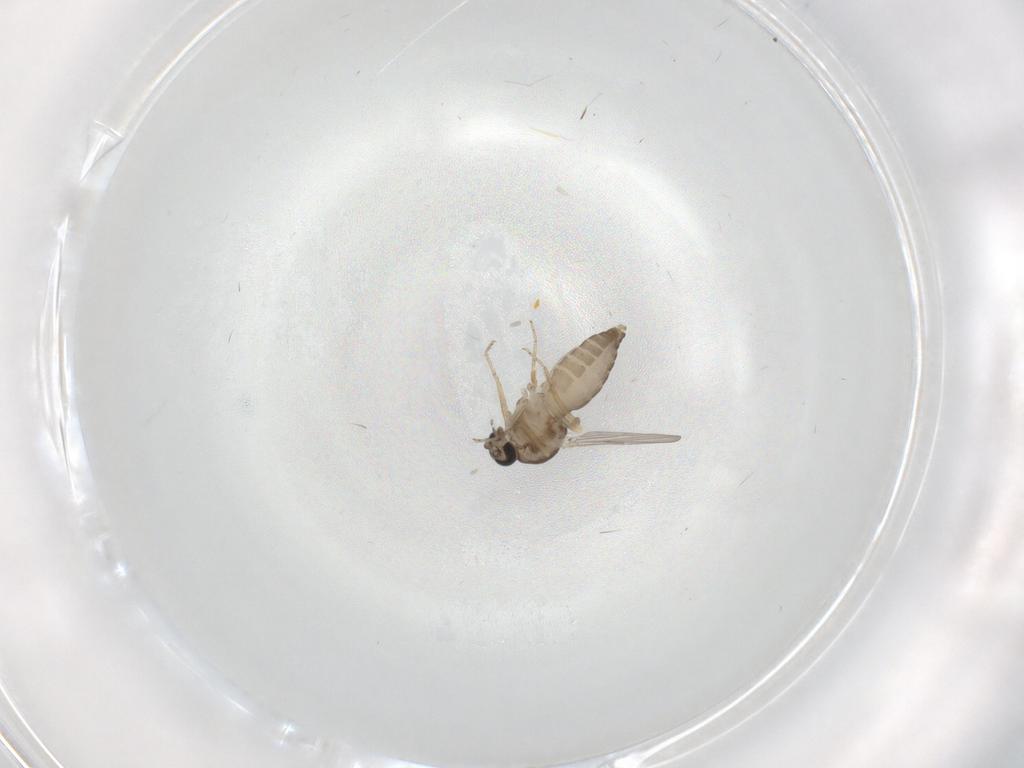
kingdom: Animalia
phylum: Arthropoda
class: Insecta
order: Diptera
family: Ceratopogonidae
